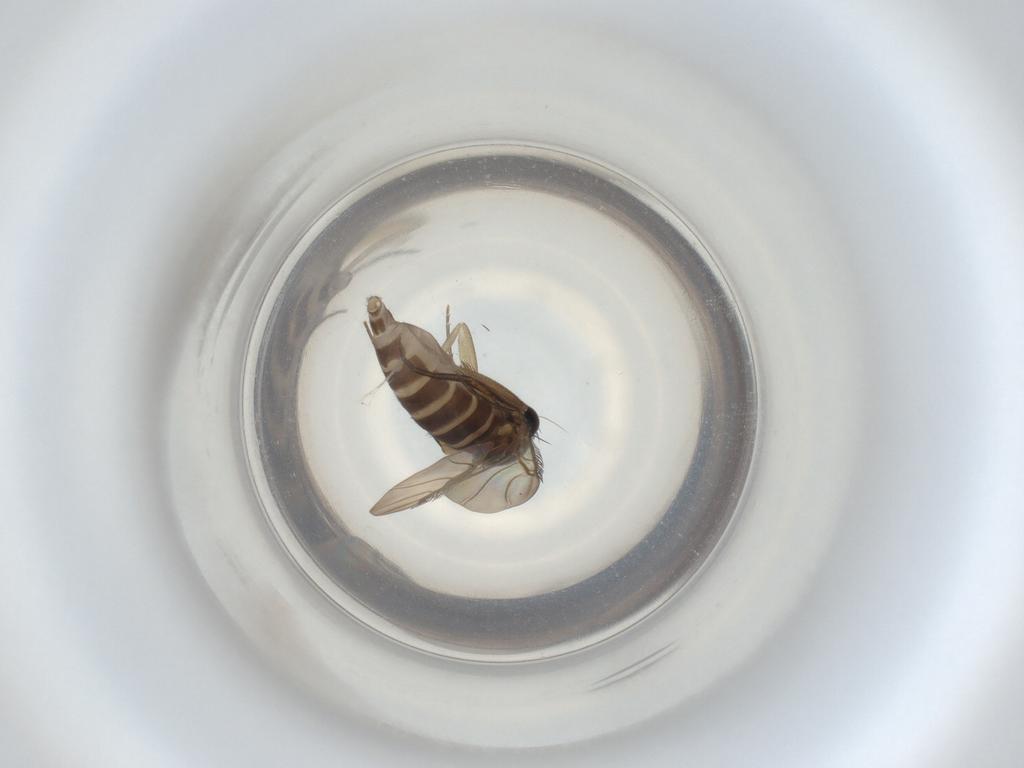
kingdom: Animalia
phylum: Arthropoda
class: Insecta
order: Diptera
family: Phoridae
